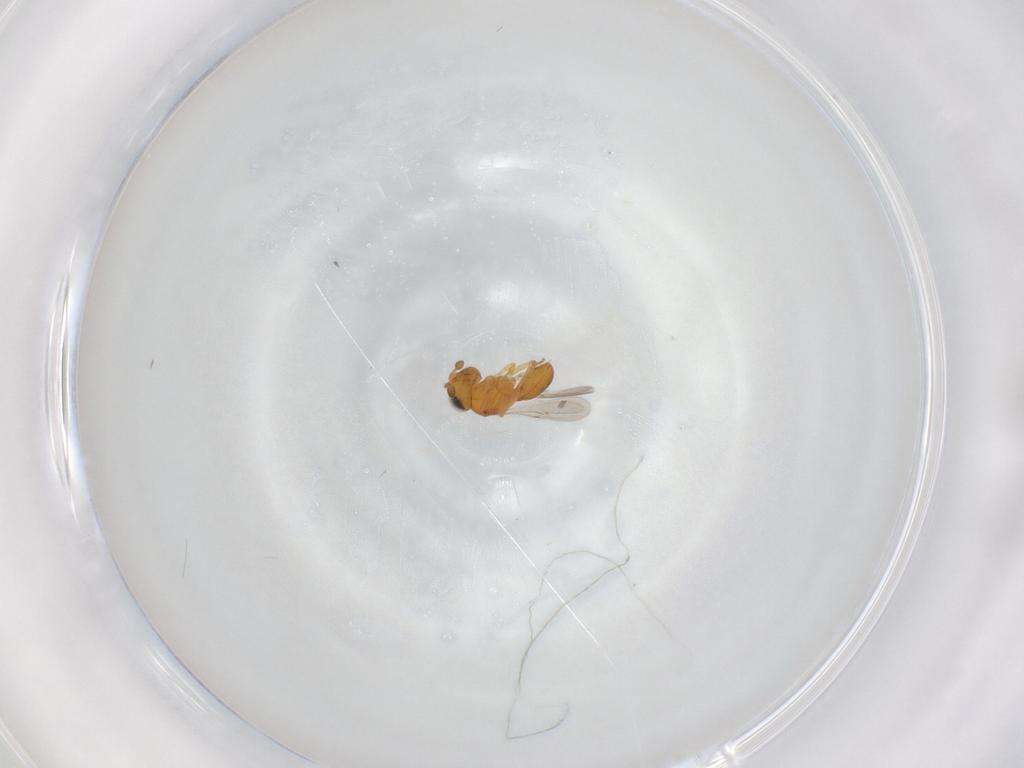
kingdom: Animalia
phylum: Arthropoda
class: Insecta
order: Hymenoptera
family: Scelionidae
